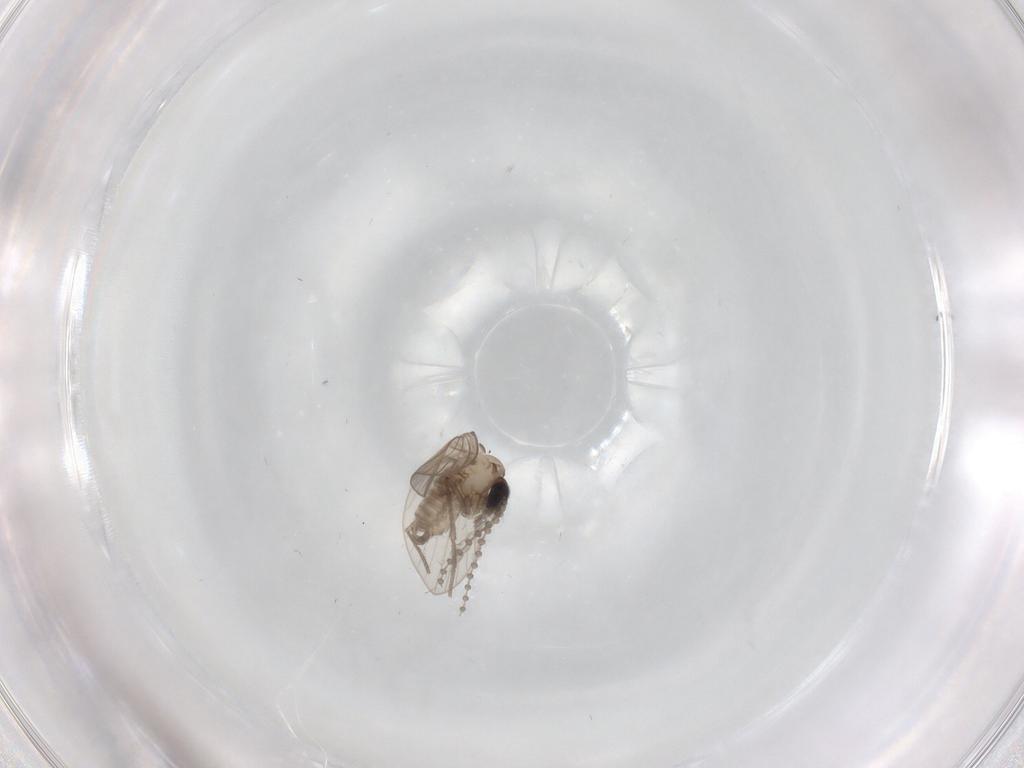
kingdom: Animalia
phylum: Arthropoda
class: Insecta
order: Diptera
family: Psychodidae
